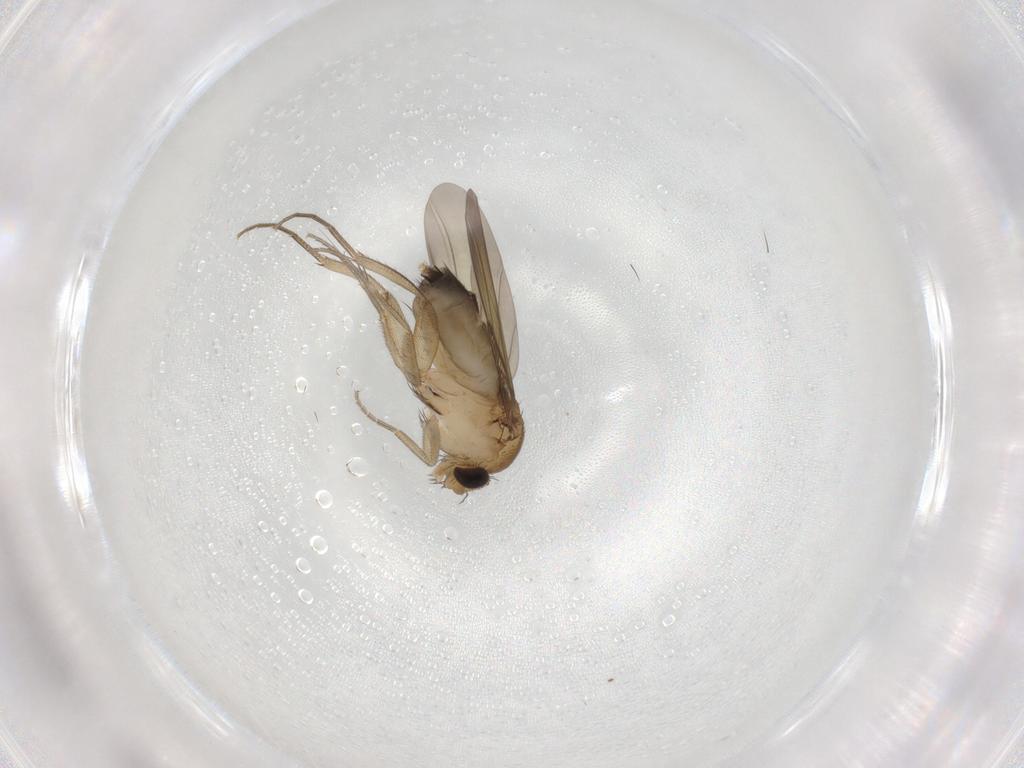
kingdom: Animalia
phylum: Arthropoda
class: Insecta
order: Diptera
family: Phoridae
